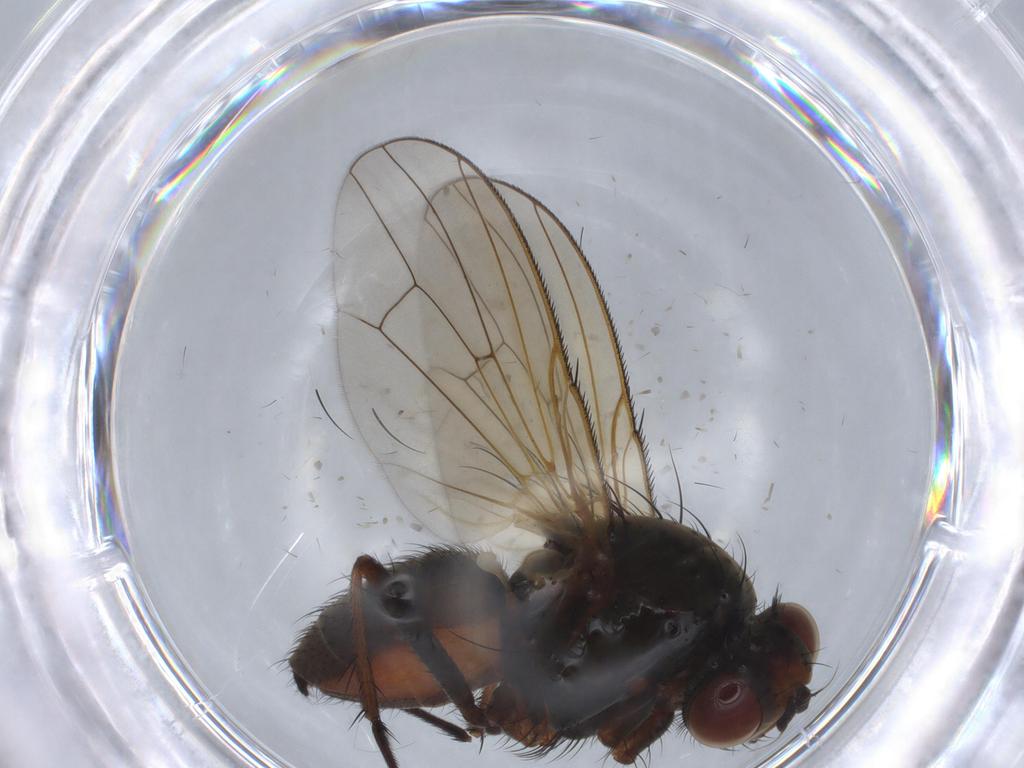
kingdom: Animalia
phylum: Arthropoda
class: Insecta
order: Diptera
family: Anthomyiidae
